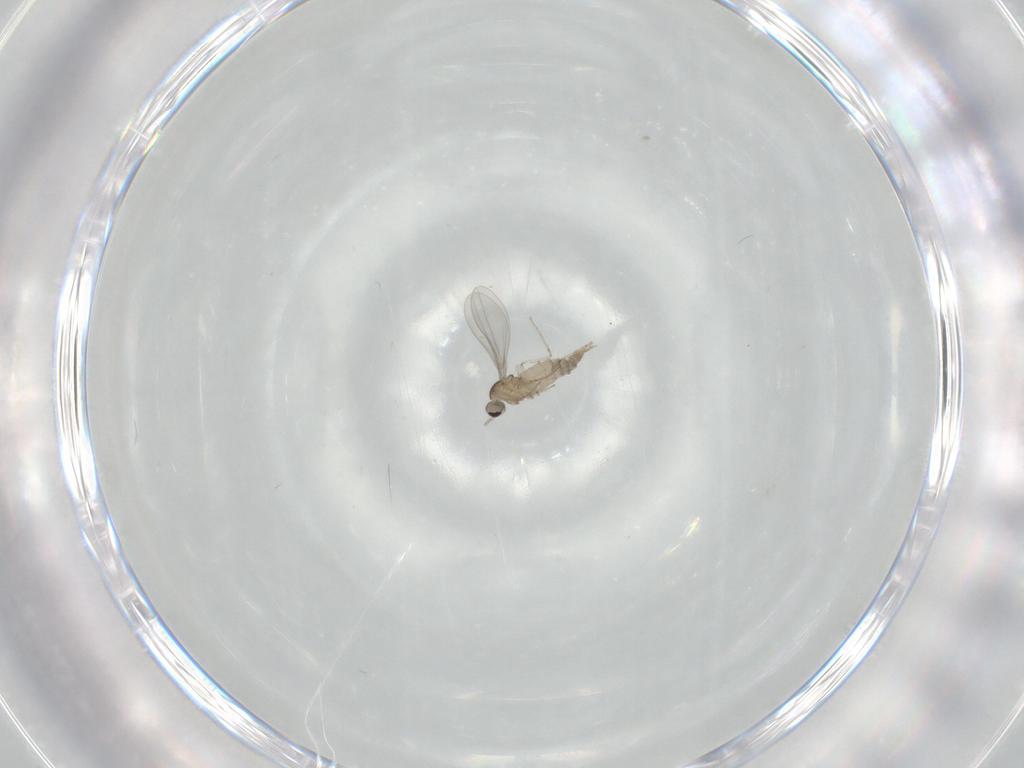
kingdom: Animalia
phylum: Arthropoda
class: Insecta
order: Diptera
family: Cecidomyiidae
